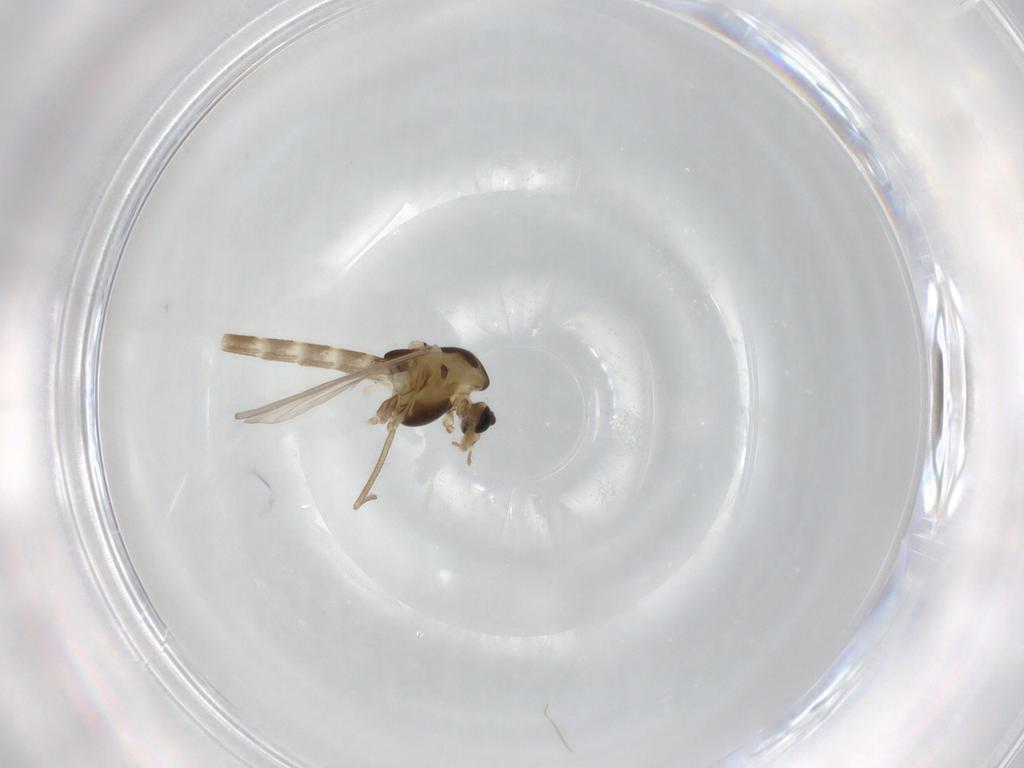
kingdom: Animalia
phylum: Arthropoda
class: Insecta
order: Diptera
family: Chironomidae
